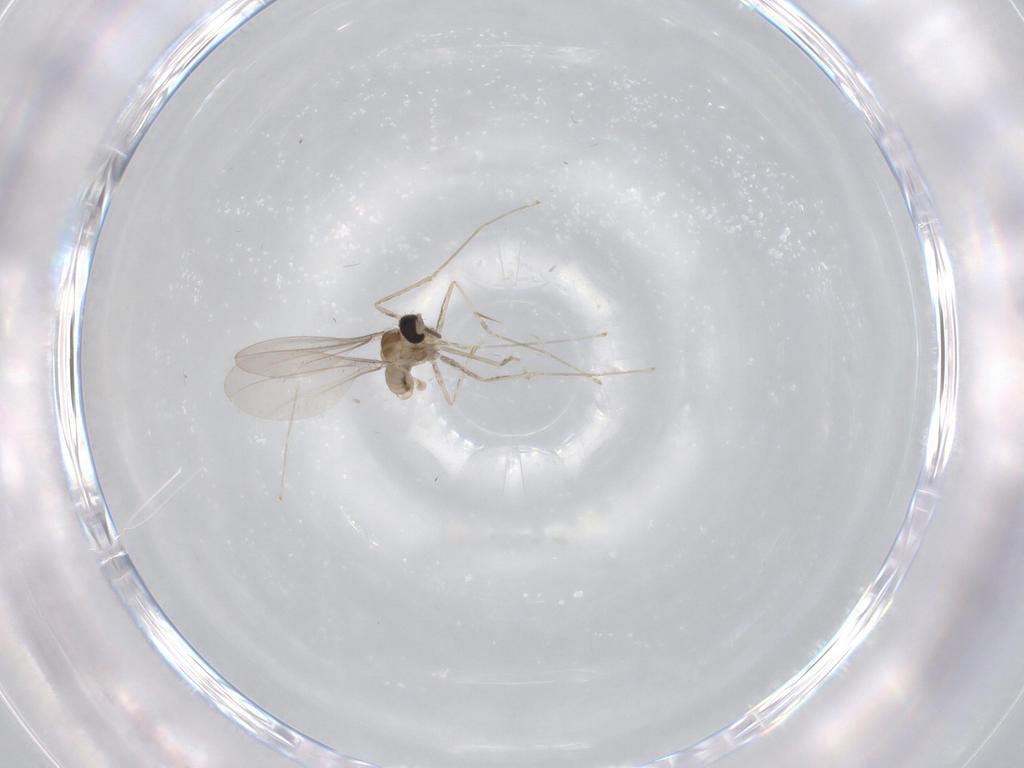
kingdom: Animalia
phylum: Arthropoda
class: Insecta
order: Diptera
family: Cecidomyiidae
